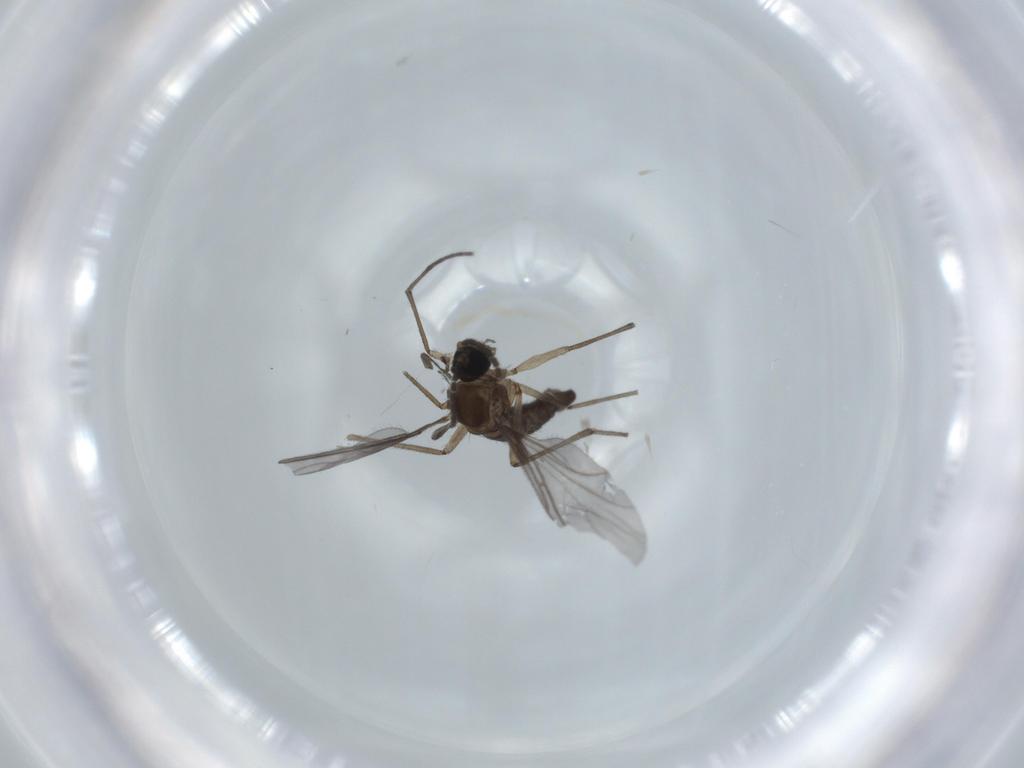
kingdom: Animalia
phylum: Arthropoda
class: Insecta
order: Diptera
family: Sciaridae
